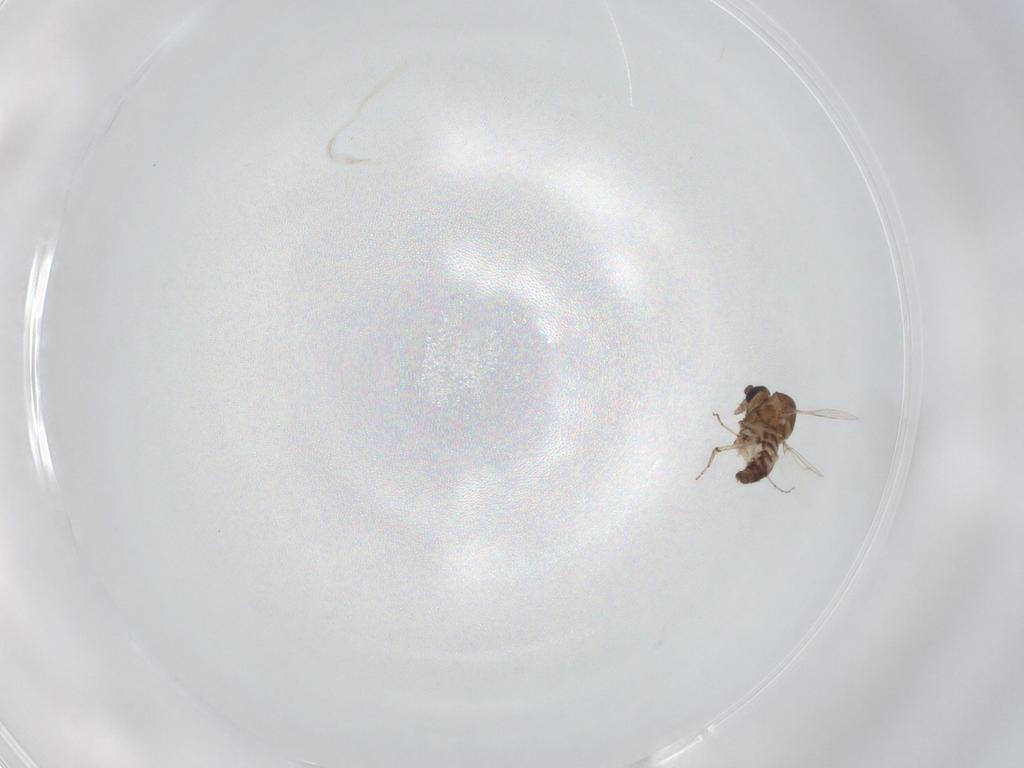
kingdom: Animalia
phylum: Arthropoda
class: Insecta
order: Diptera
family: Ceratopogonidae
